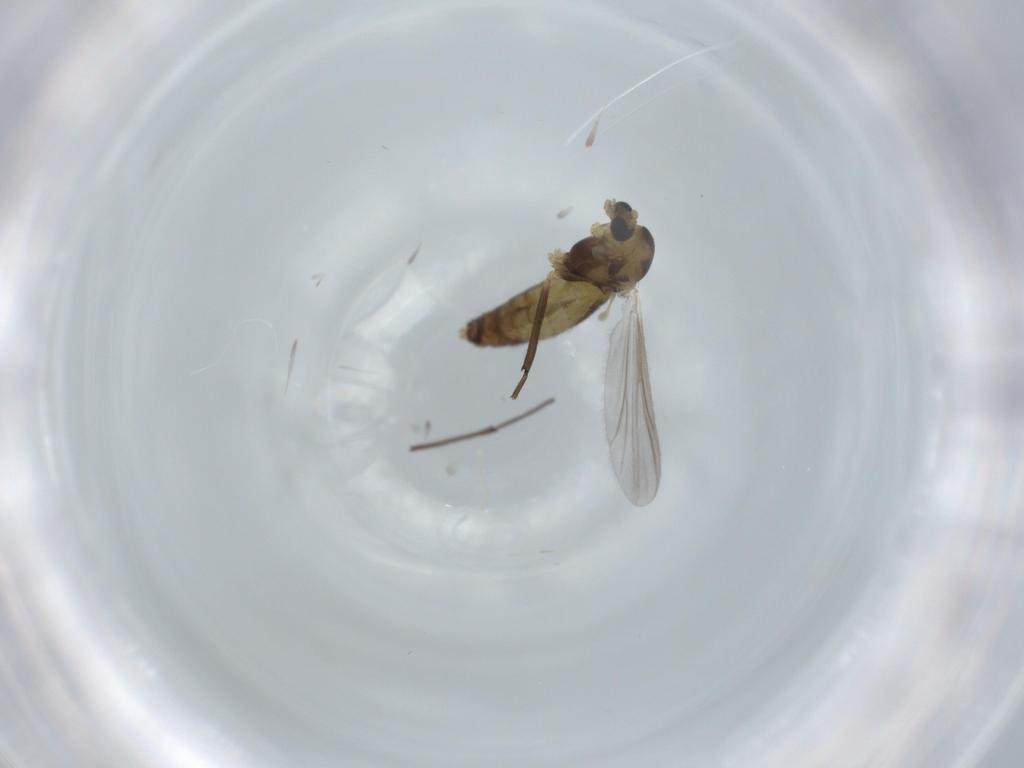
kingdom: Animalia
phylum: Arthropoda
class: Insecta
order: Diptera
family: Chironomidae
